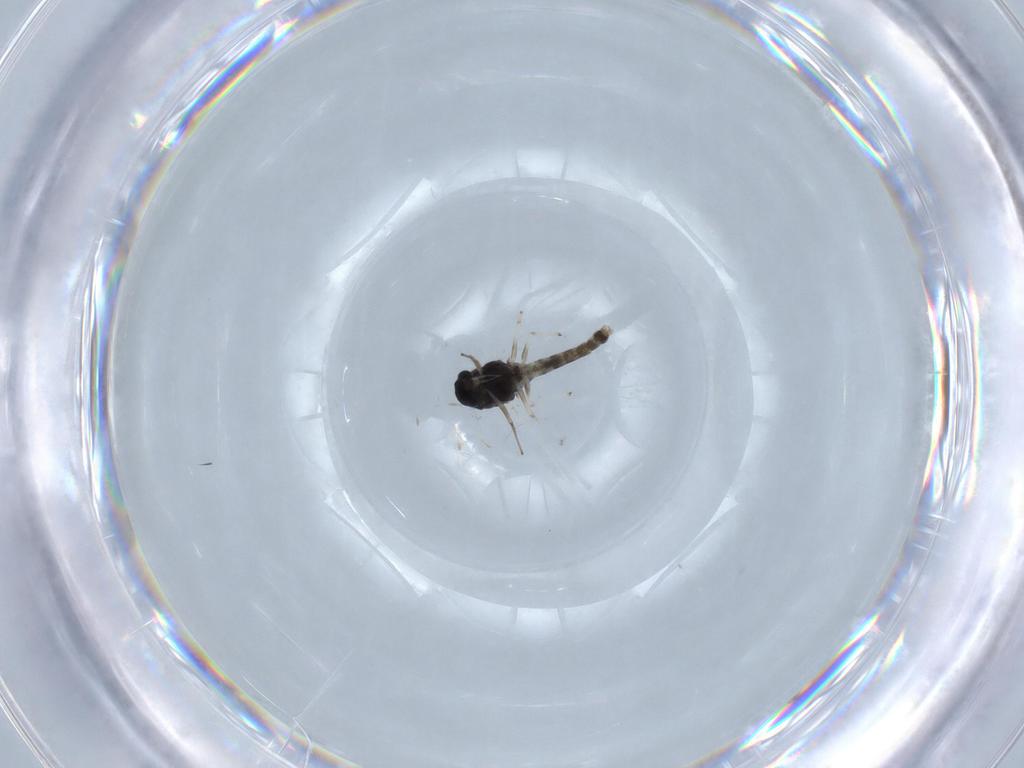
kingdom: Animalia
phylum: Arthropoda
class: Insecta
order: Diptera
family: Chironomidae
